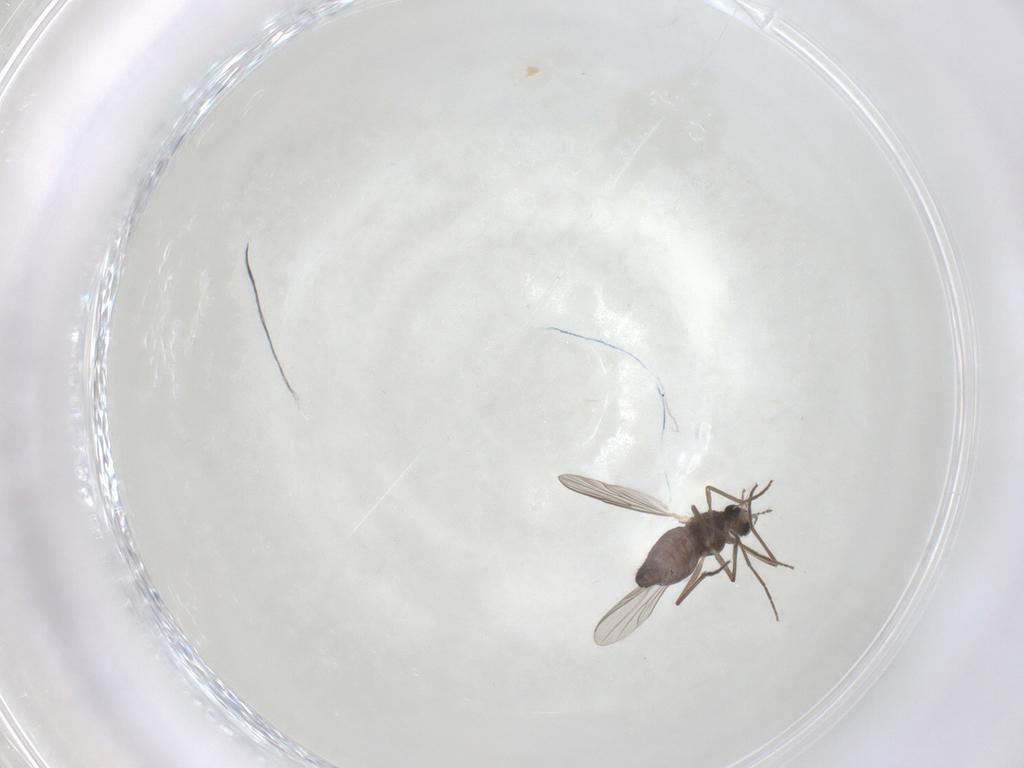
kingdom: Animalia
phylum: Arthropoda
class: Insecta
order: Diptera
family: Chironomidae
